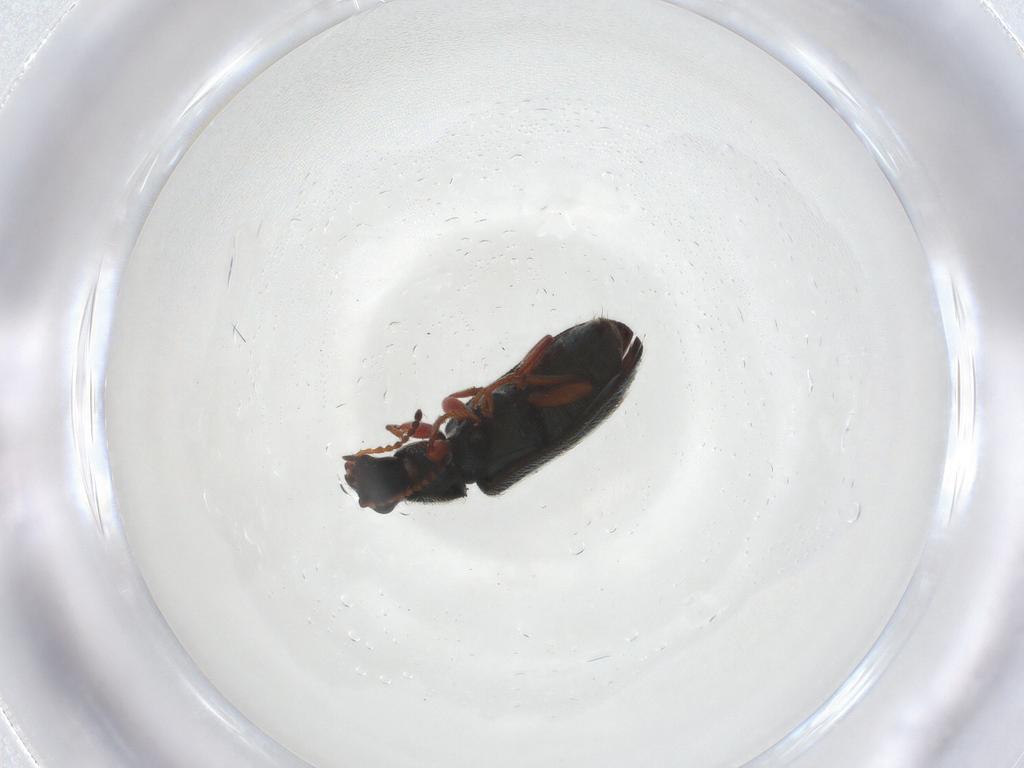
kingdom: Animalia
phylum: Arthropoda
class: Insecta
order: Coleoptera
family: Melyridae
